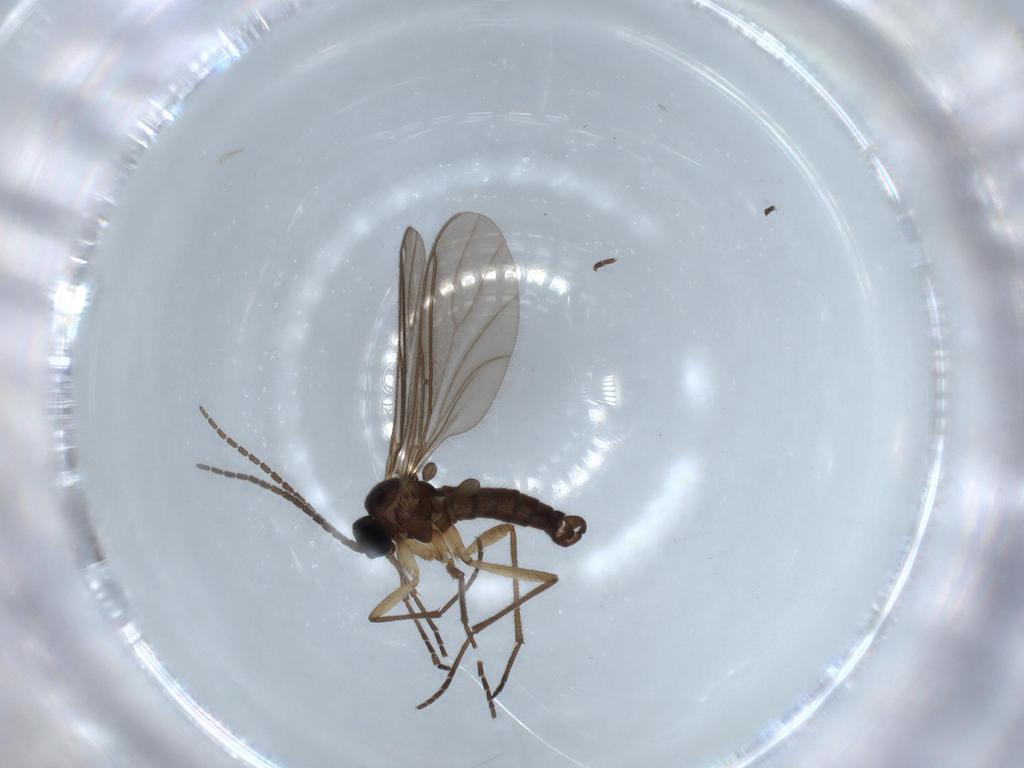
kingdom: Animalia
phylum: Arthropoda
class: Insecta
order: Diptera
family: Sciaridae
